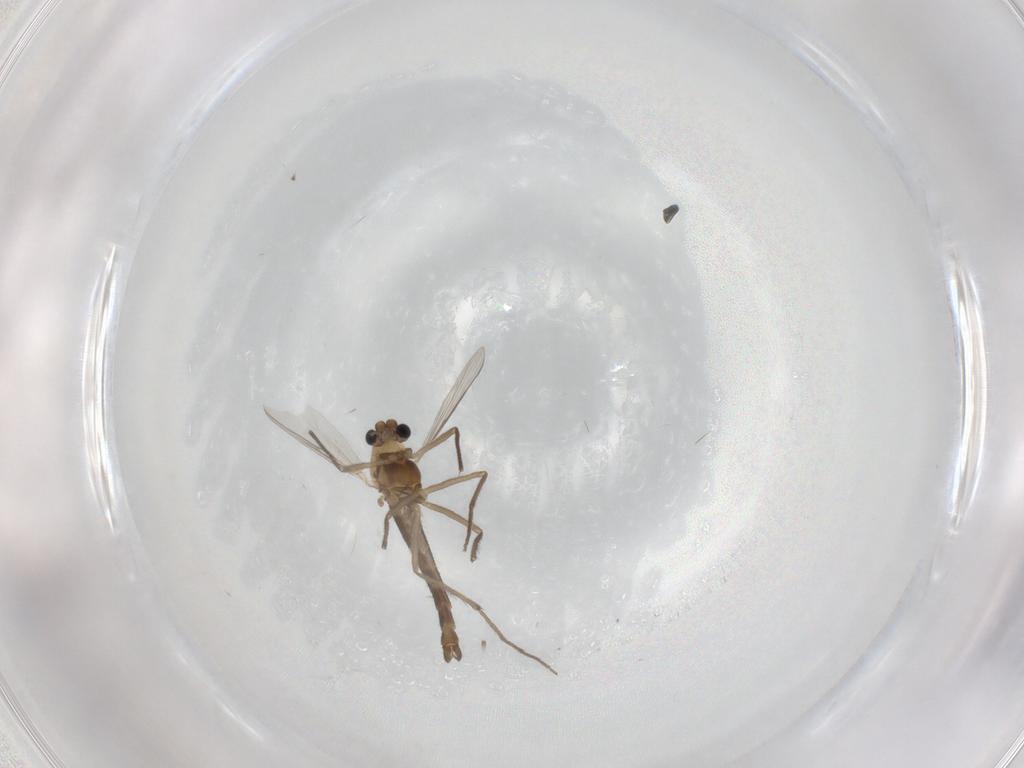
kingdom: Animalia
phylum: Arthropoda
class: Insecta
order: Diptera
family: Chironomidae
